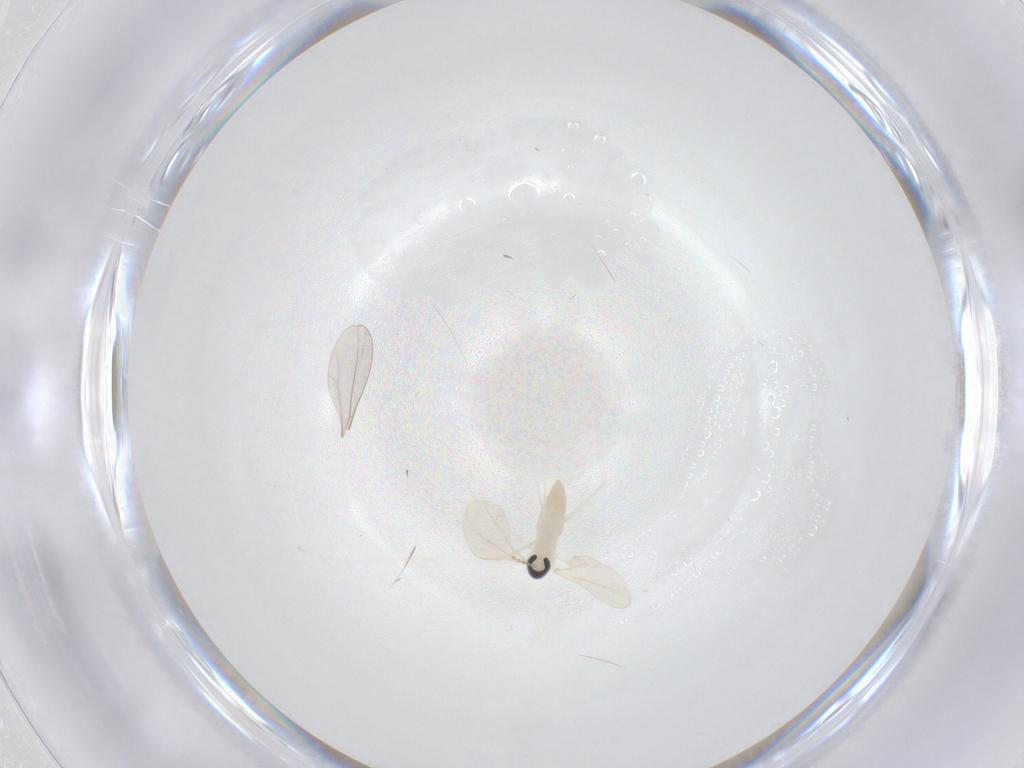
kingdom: Animalia
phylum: Arthropoda
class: Insecta
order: Diptera
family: Cecidomyiidae
